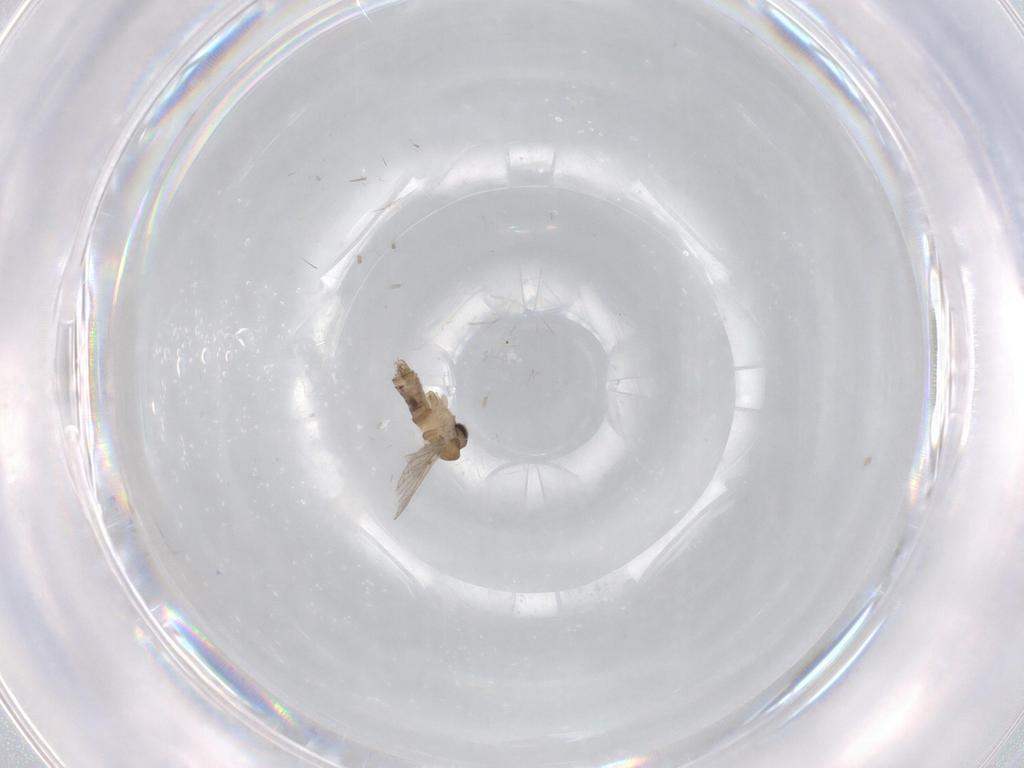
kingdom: Animalia
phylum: Arthropoda
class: Insecta
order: Diptera
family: Psychodidae
